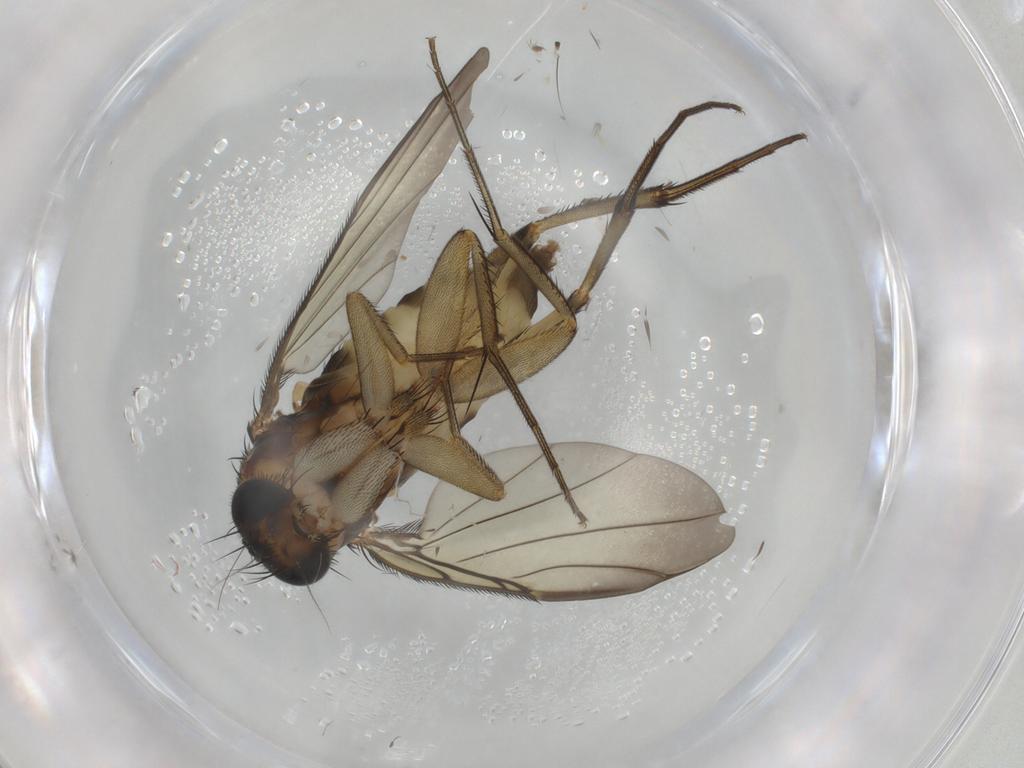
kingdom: Animalia
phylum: Arthropoda
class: Insecta
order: Diptera
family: Phoridae
